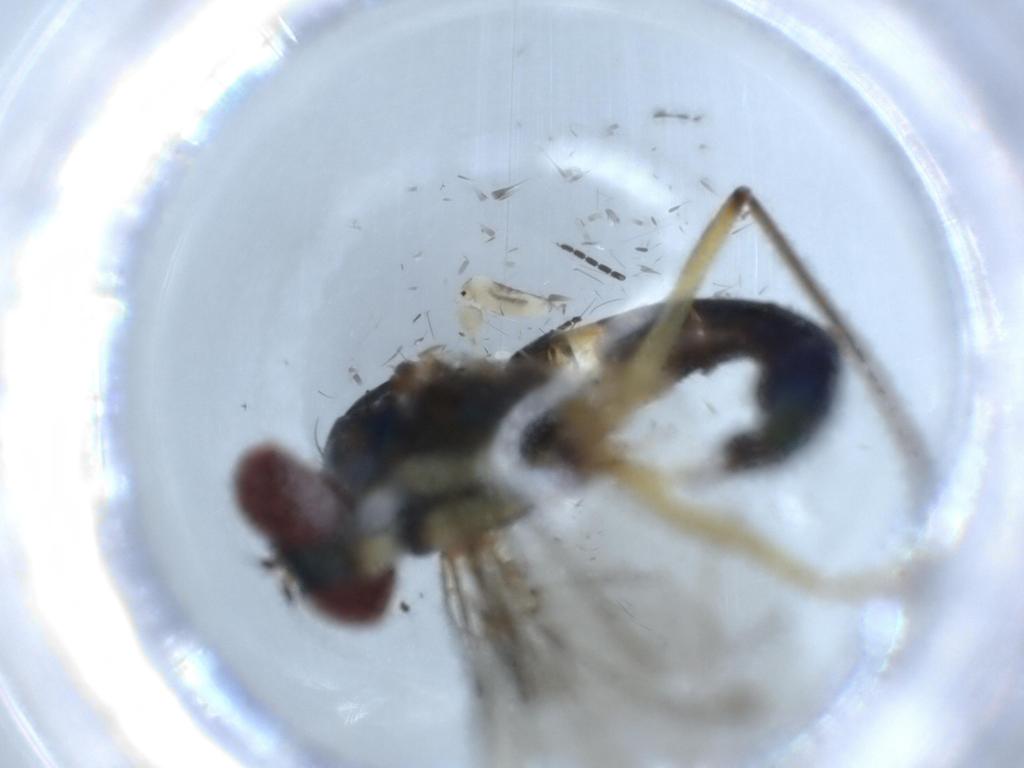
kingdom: Animalia
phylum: Arthropoda
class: Insecta
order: Diptera
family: Dolichopodidae
